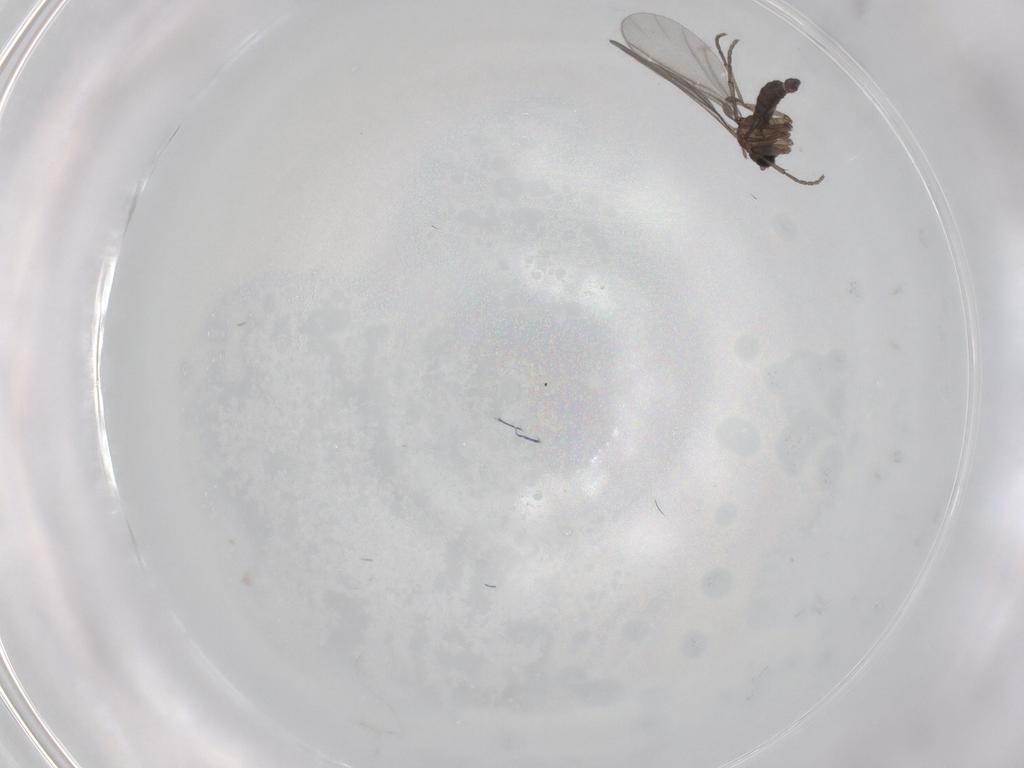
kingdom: Animalia
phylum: Arthropoda
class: Insecta
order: Diptera
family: Sciaridae
